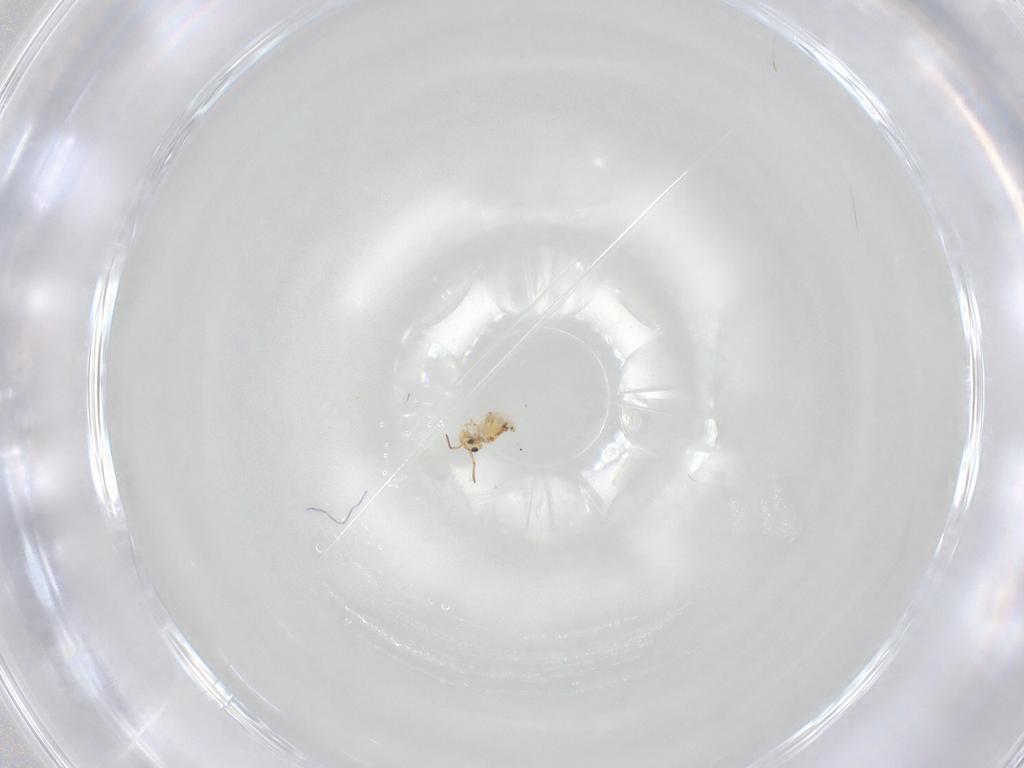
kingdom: Animalia
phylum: Arthropoda
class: Collembola
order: Symphypleona
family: Bourletiellidae
